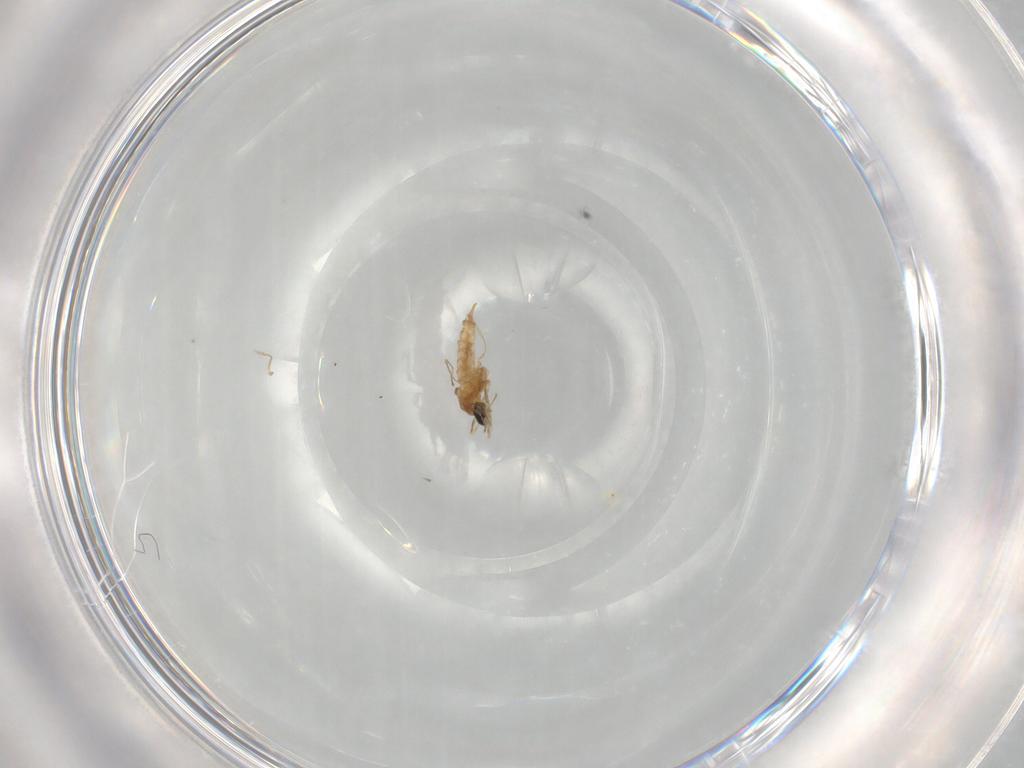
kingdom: Animalia
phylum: Arthropoda
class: Insecta
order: Diptera
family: Cecidomyiidae
